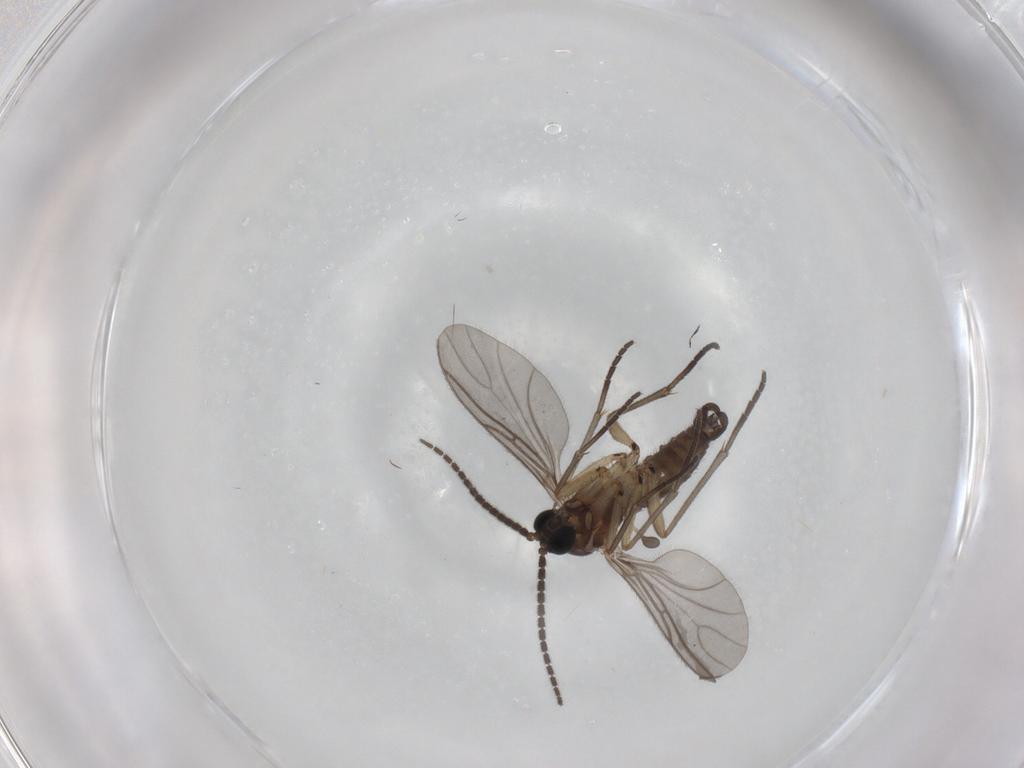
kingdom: Animalia
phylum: Arthropoda
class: Insecta
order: Diptera
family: Sciaridae
